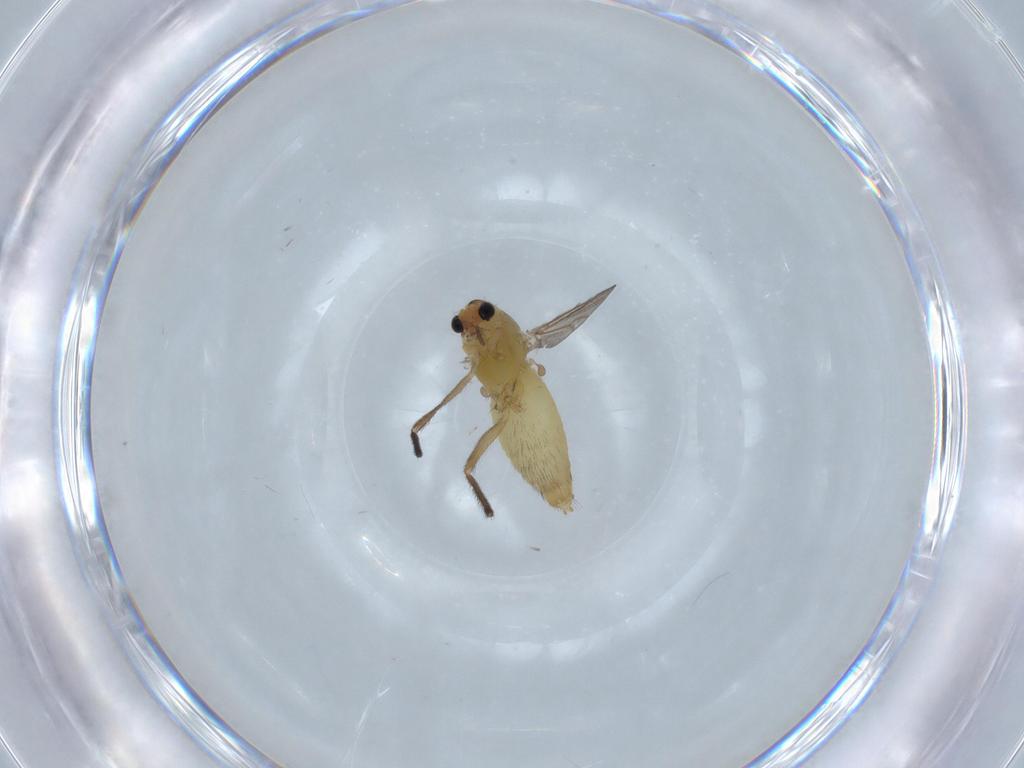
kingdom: Animalia
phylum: Arthropoda
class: Insecta
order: Diptera
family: Chironomidae
